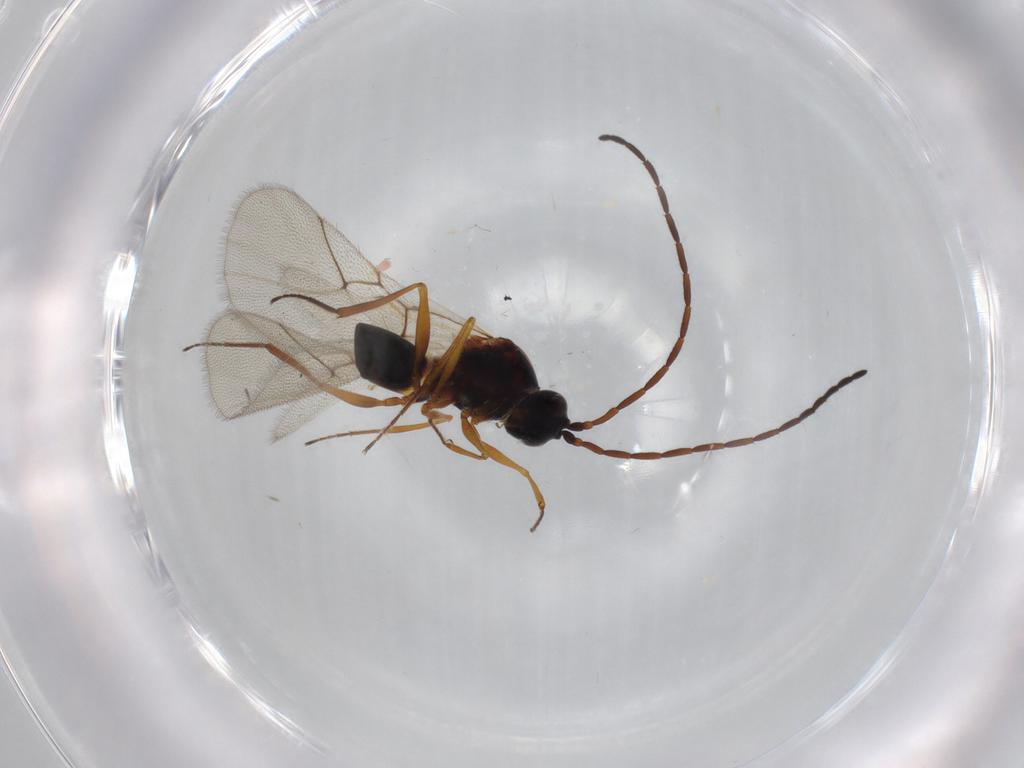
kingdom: Animalia
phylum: Arthropoda
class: Insecta
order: Hymenoptera
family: Figitidae
